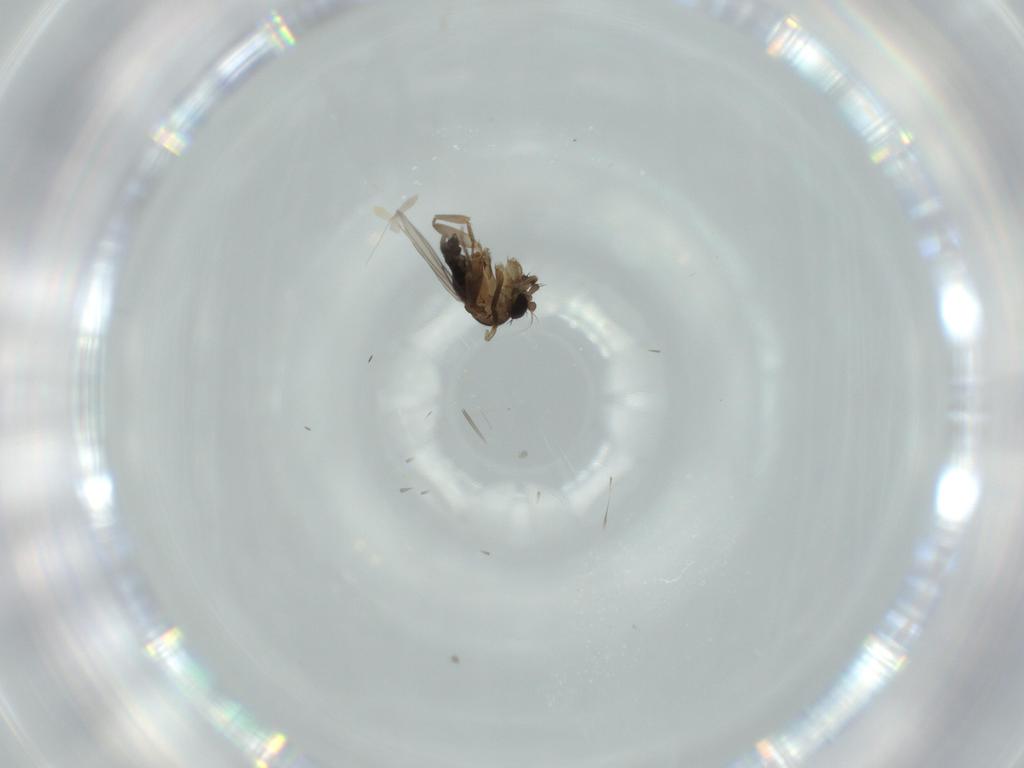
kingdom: Animalia
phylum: Arthropoda
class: Insecta
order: Diptera
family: Phoridae
